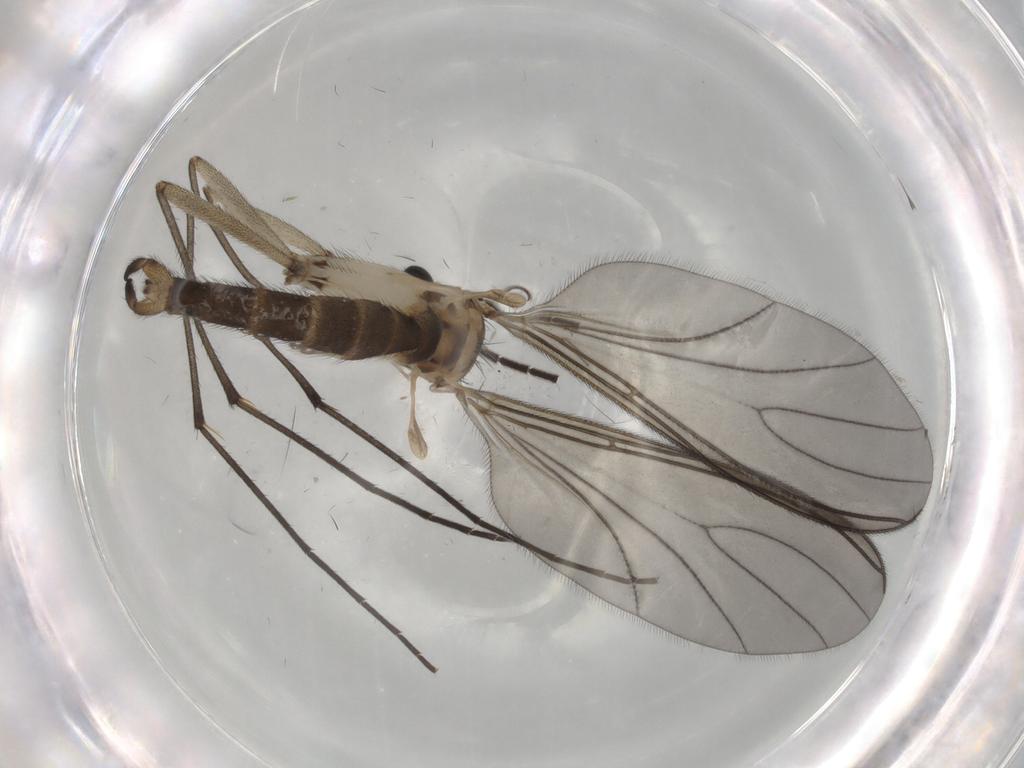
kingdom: Animalia
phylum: Arthropoda
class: Insecta
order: Diptera
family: Sciaridae
